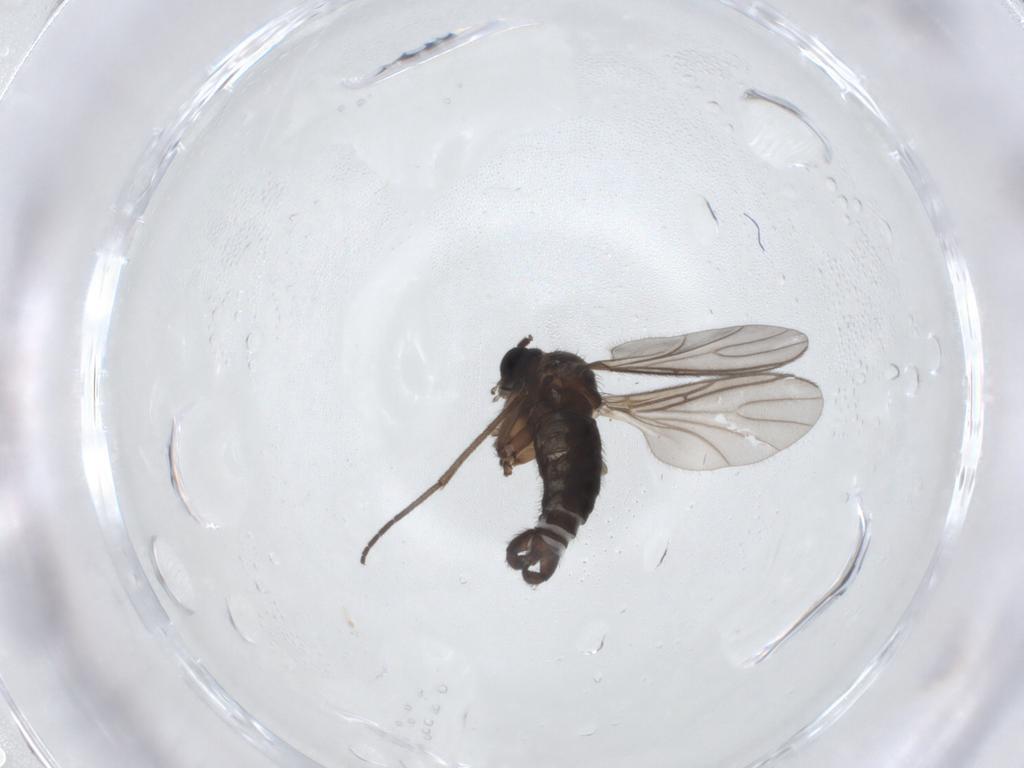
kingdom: Animalia
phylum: Arthropoda
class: Insecta
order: Diptera
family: Sciaridae
